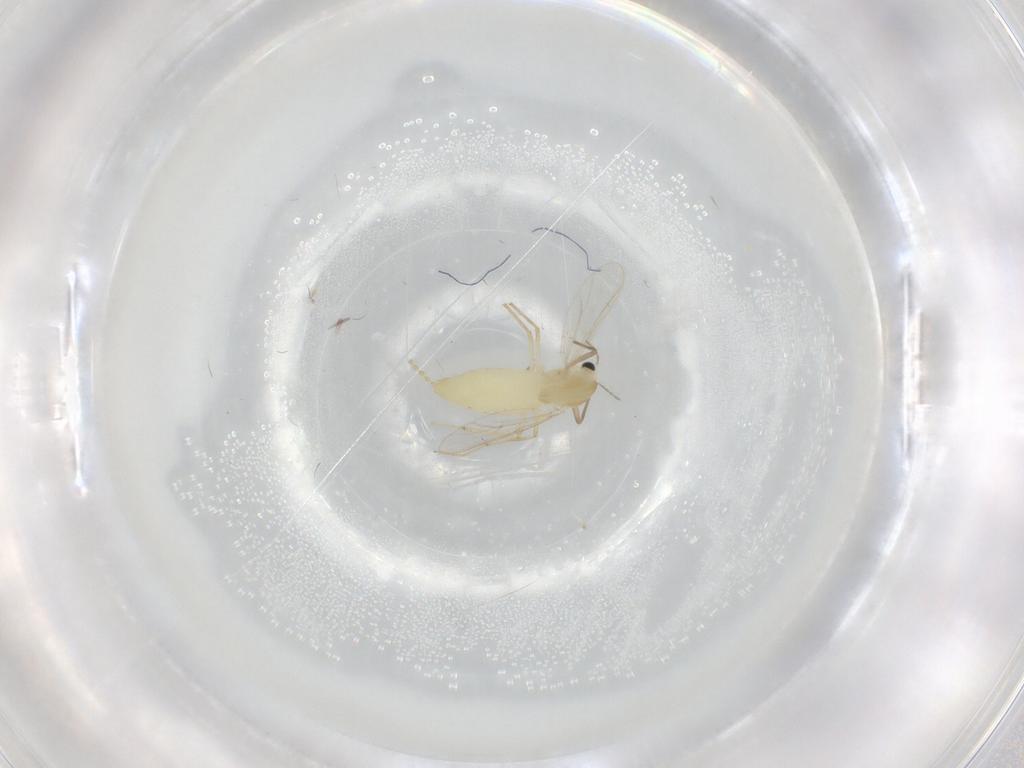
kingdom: Animalia
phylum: Arthropoda
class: Insecta
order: Diptera
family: Chironomidae
